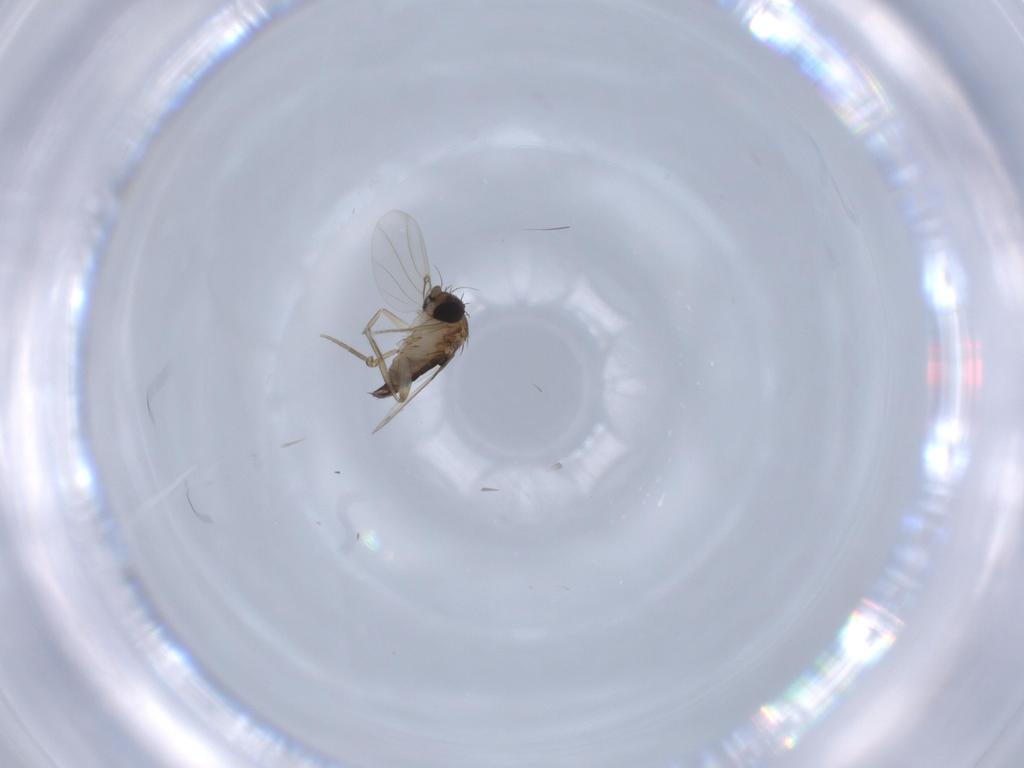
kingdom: Animalia
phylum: Arthropoda
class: Insecta
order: Diptera
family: Phoridae
